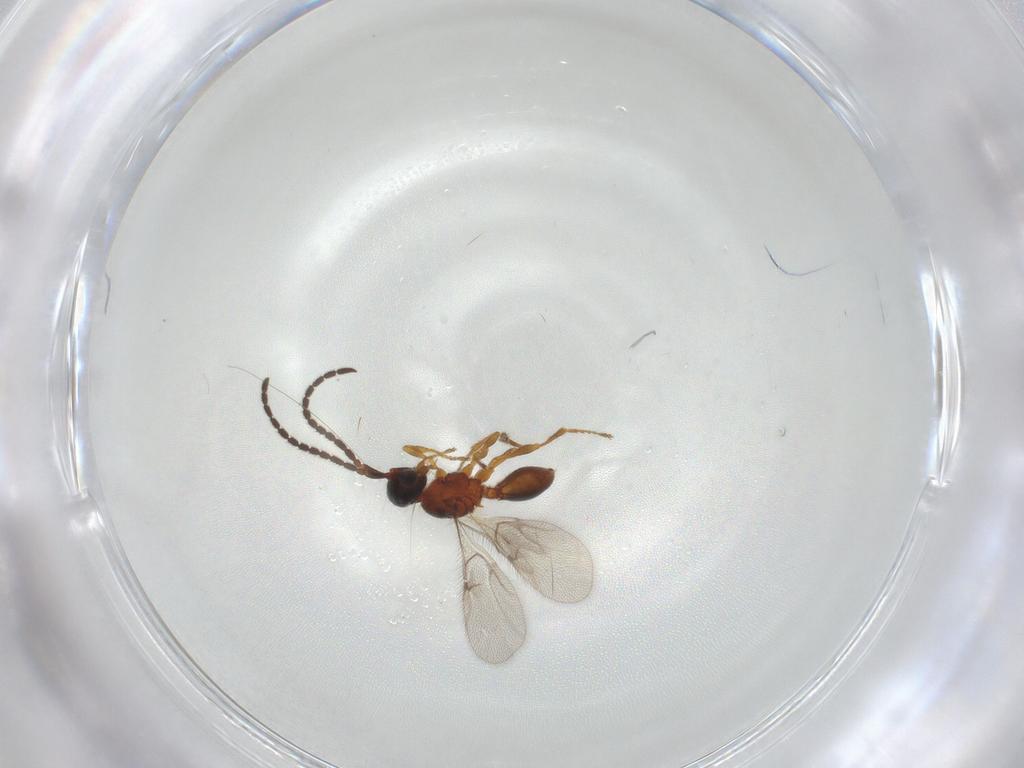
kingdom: Animalia
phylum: Arthropoda
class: Insecta
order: Hymenoptera
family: Diapriidae
